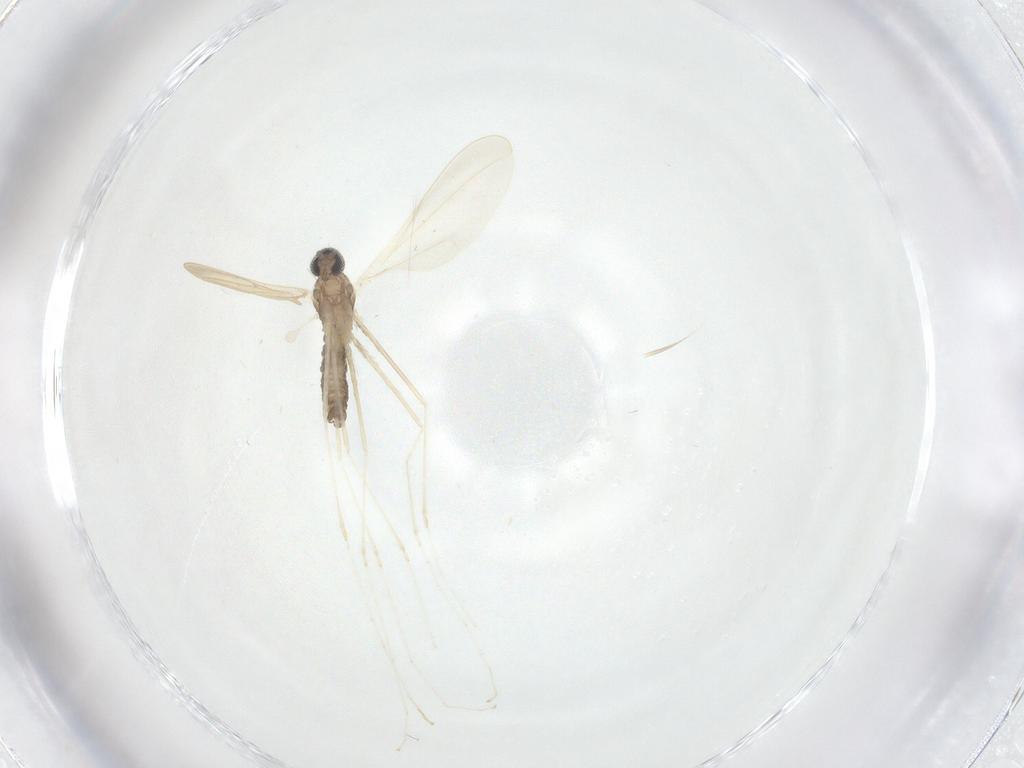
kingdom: Animalia
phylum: Arthropoda
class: Insecta
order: Diptera
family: Cecidomyiidae
